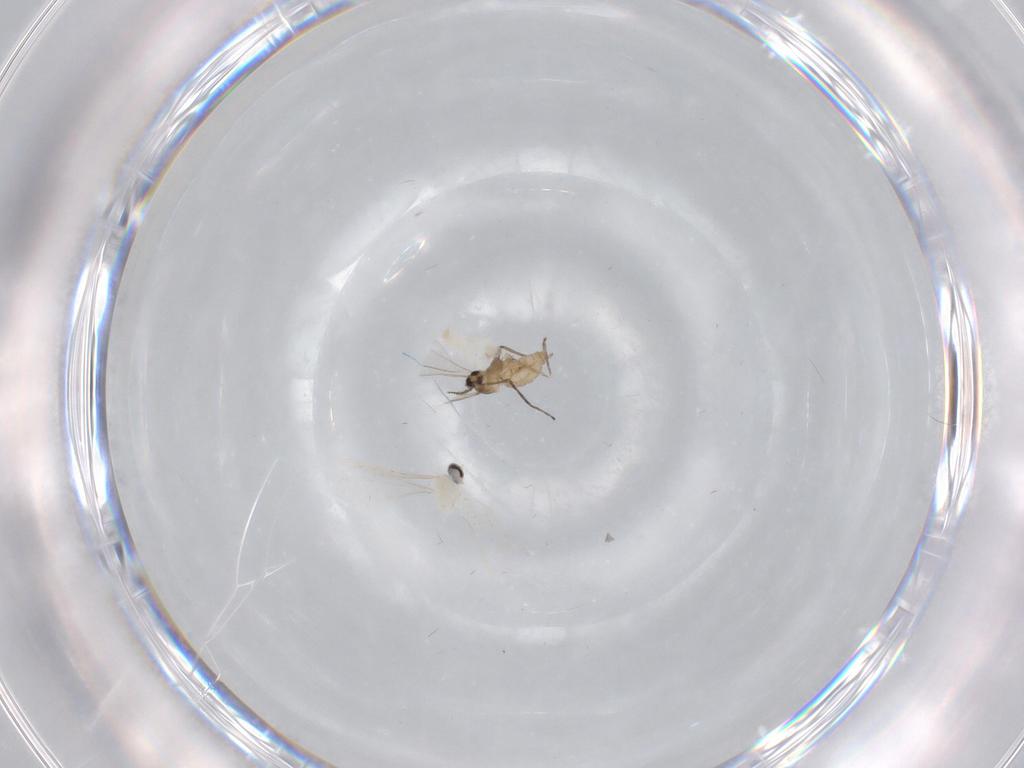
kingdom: Animalia
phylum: Arthropoda
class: Insecta
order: Diptera
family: Cecidomyiidae
